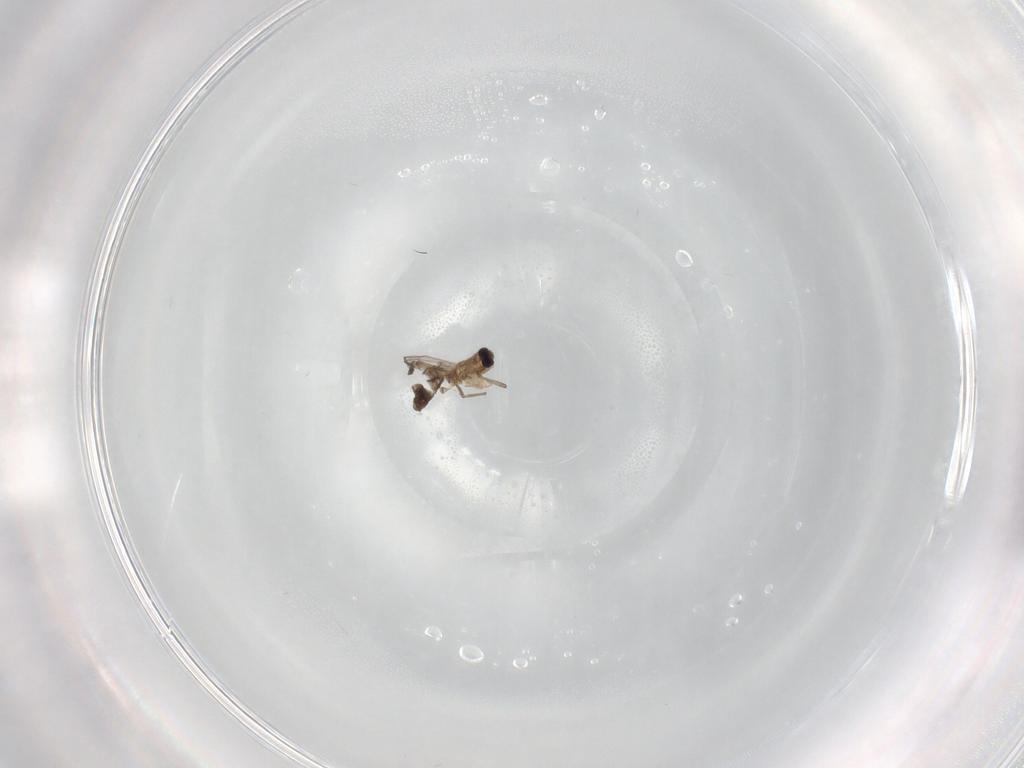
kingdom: Animalia
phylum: Arthropoda
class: Insecta
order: Diptera
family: Chironomidae
